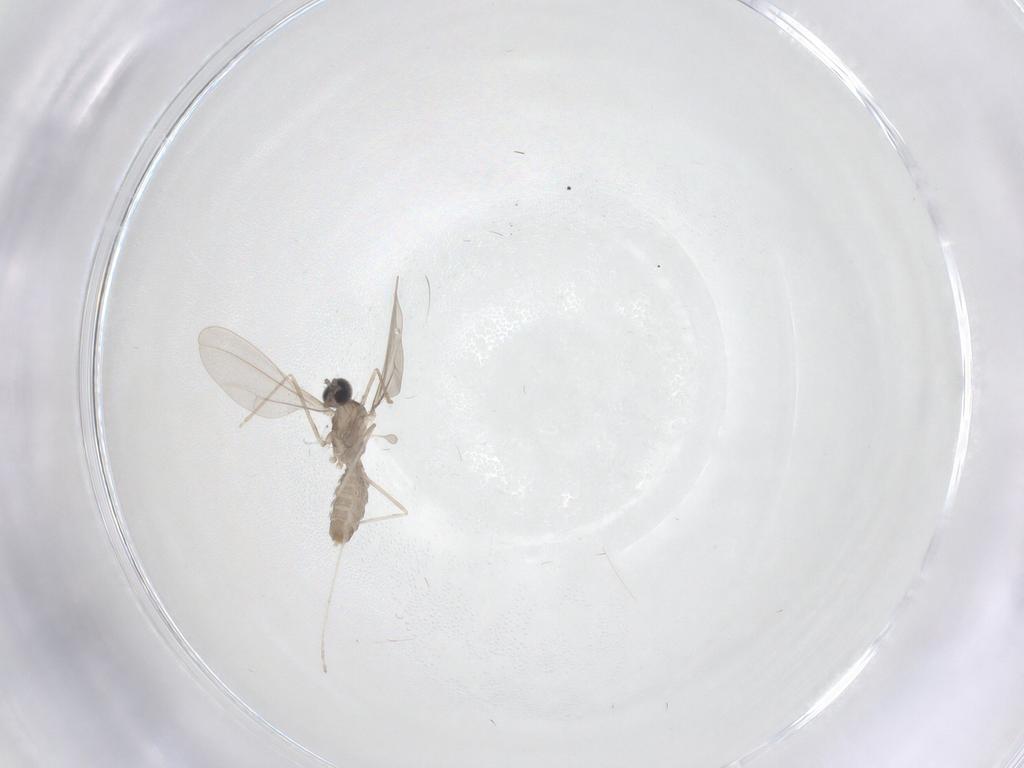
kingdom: Animalia
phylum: Arthropoda
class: Insecta
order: Diptera
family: Cecidomyiidae
